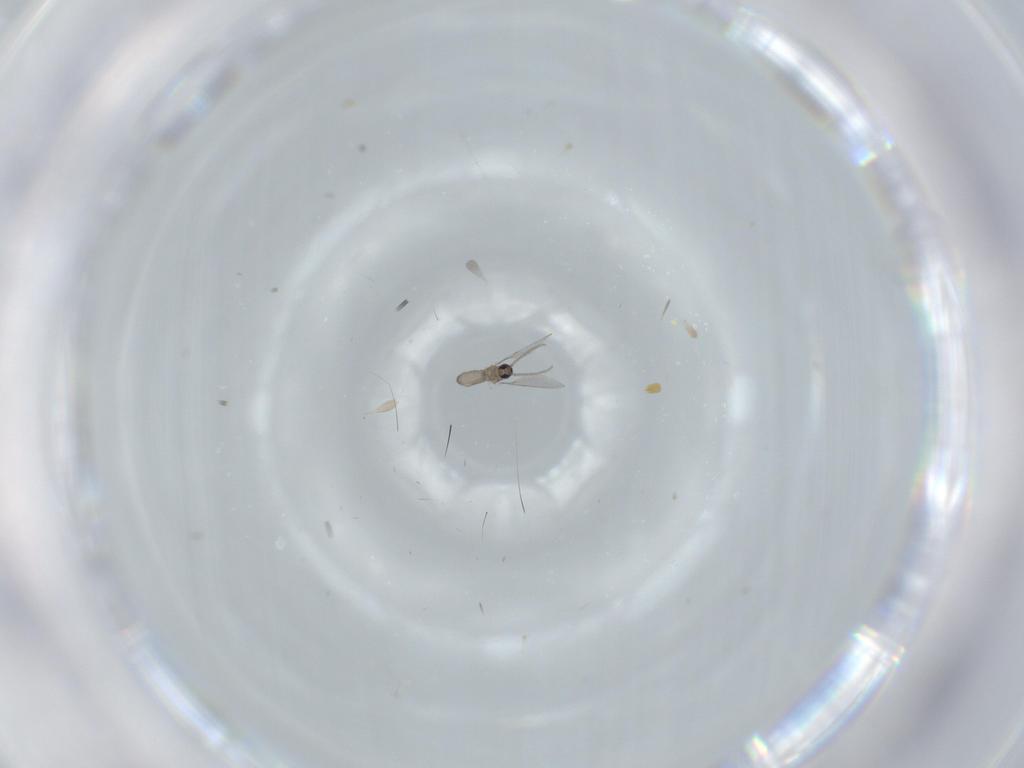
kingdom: Animalia
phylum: Arthropoda
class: Insecta
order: Diptera
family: Cecidomyiidae
